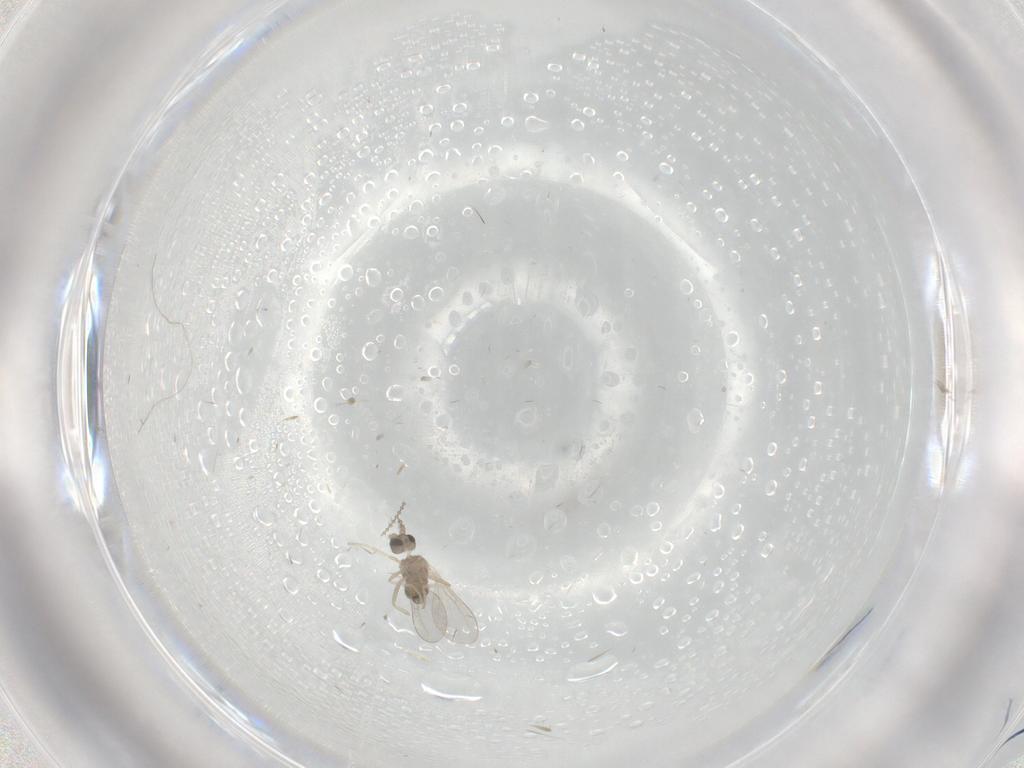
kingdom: Animalia
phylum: Arthropoda
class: Insecta
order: Diptera
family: Cecidomyiidae
